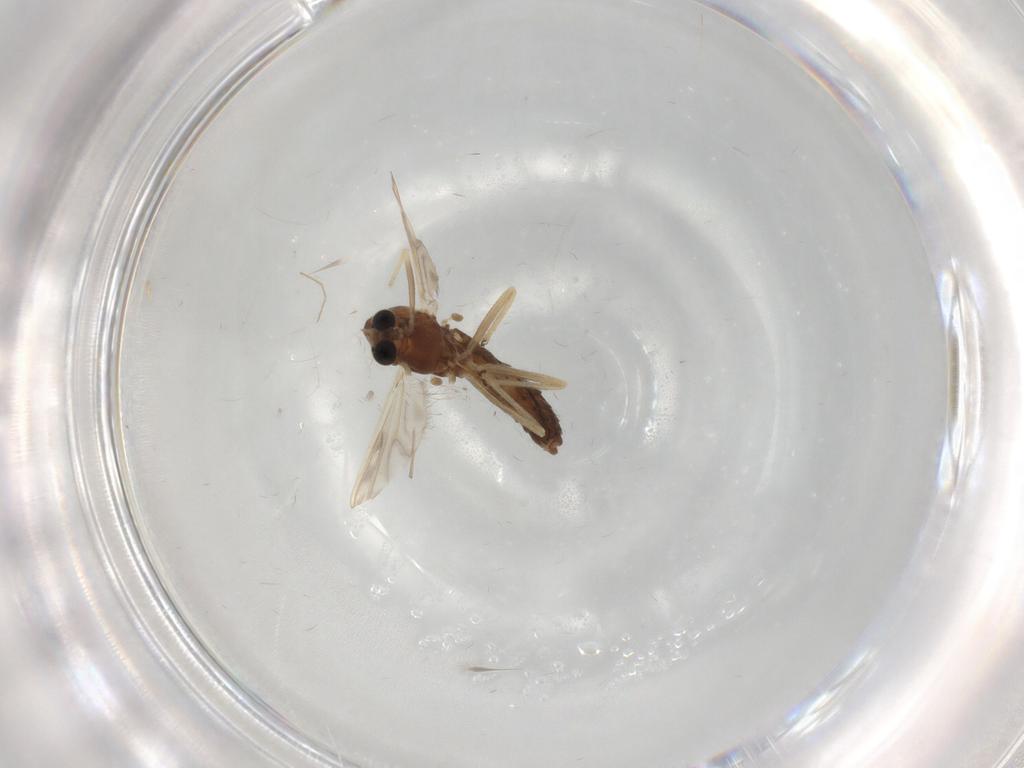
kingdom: Animalia
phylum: Arthropoda
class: Insecta
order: Diptera
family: Chironomidae
